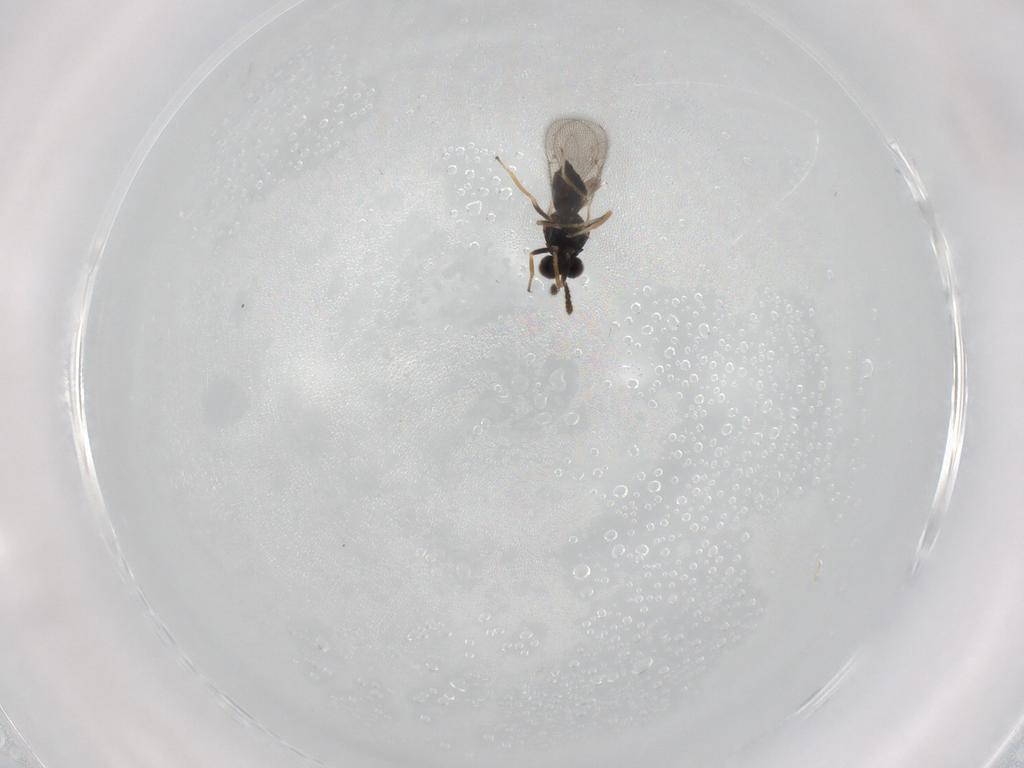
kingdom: Animalia
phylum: Arthropoda
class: Insecta
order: Hymenoptera
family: Eulophidae
